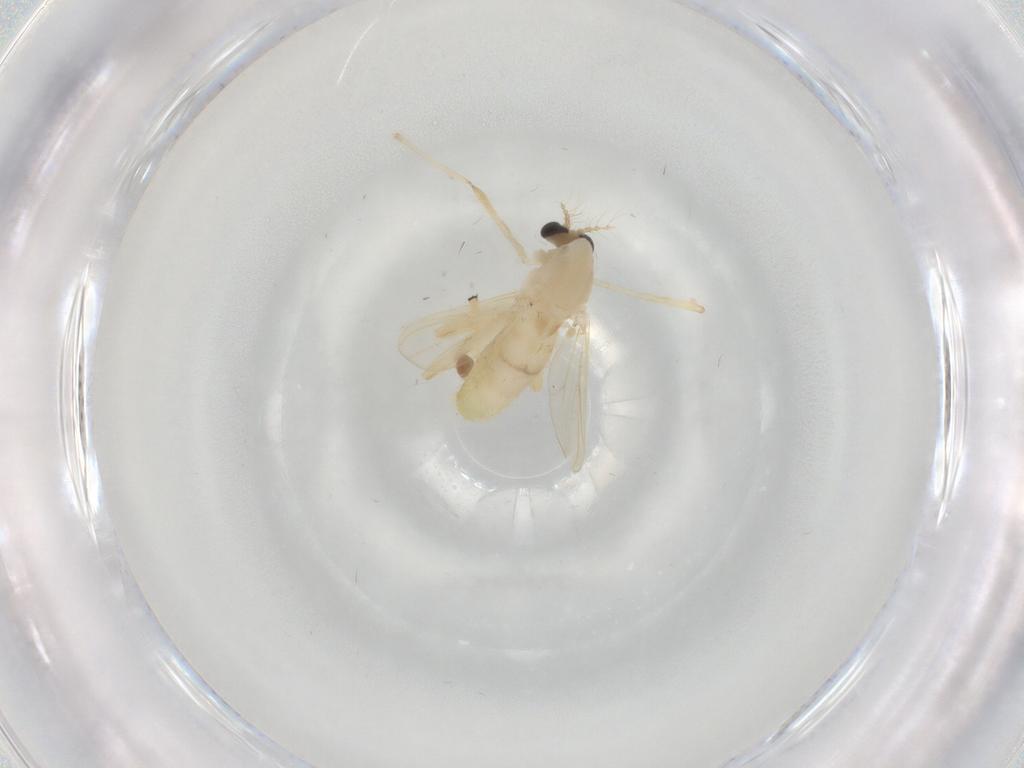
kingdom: Animalia
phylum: Arthropoda
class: Insecta
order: Diptera
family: Chironomidae
